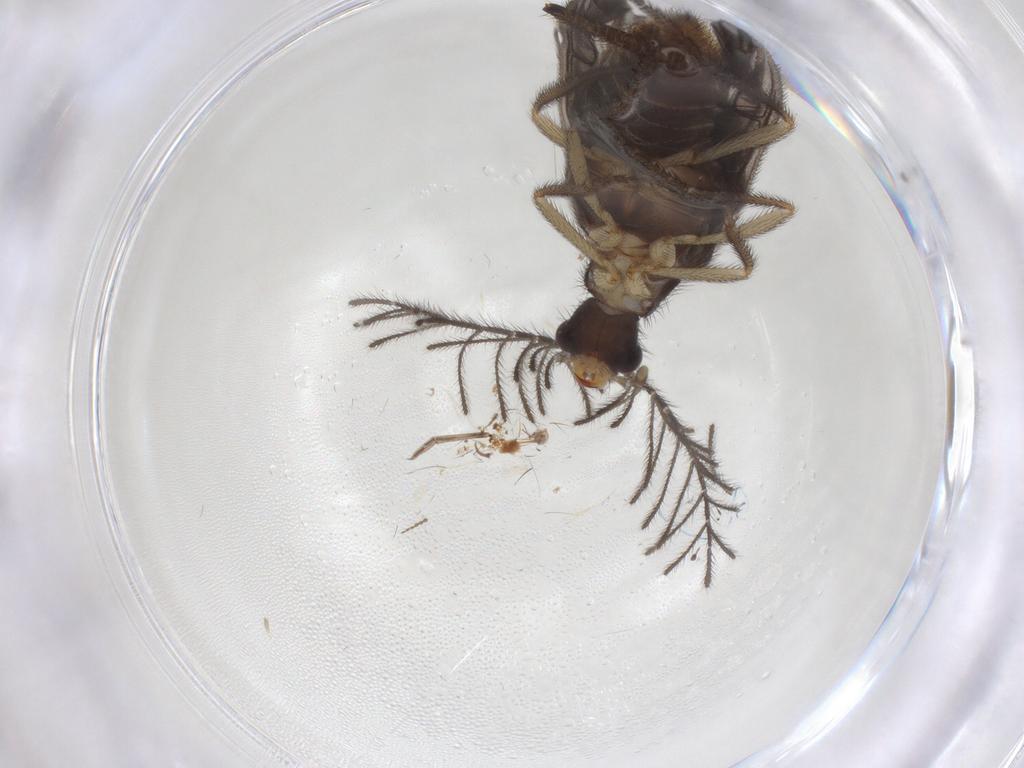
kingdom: Animalia
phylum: Arthropoda
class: Insecta
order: Orthoptera
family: Gryllidae
